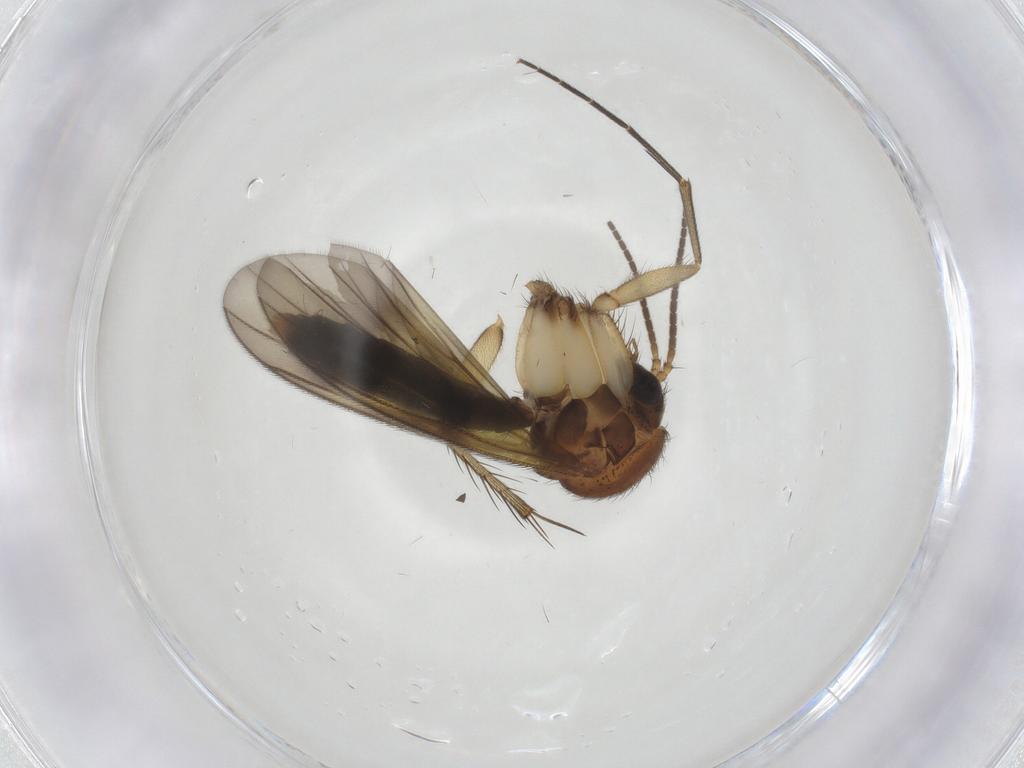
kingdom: Animalia
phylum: Arthropoda
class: Insecta
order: Diptera
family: Mycetophilidae
